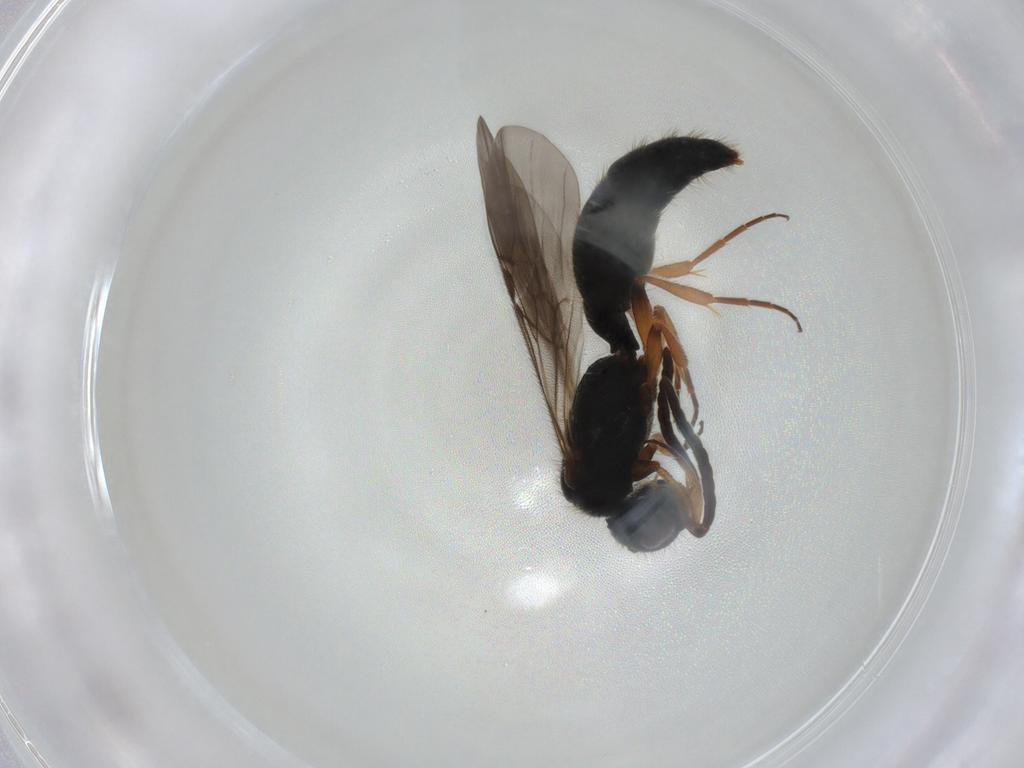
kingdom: Animalia
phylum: Arthropoda
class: Insecta
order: Hymenoptera
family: Mutillidae
